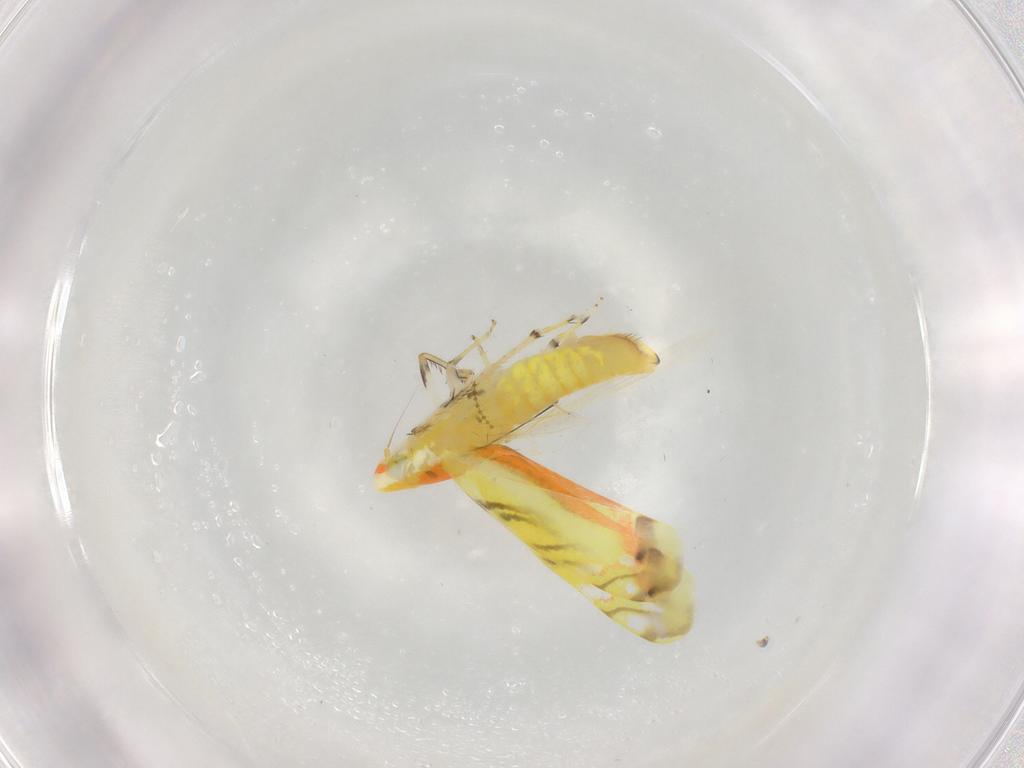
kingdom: Animalia
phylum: Arthropoda
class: Insecta
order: Hemiptera
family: Cicadellidae
